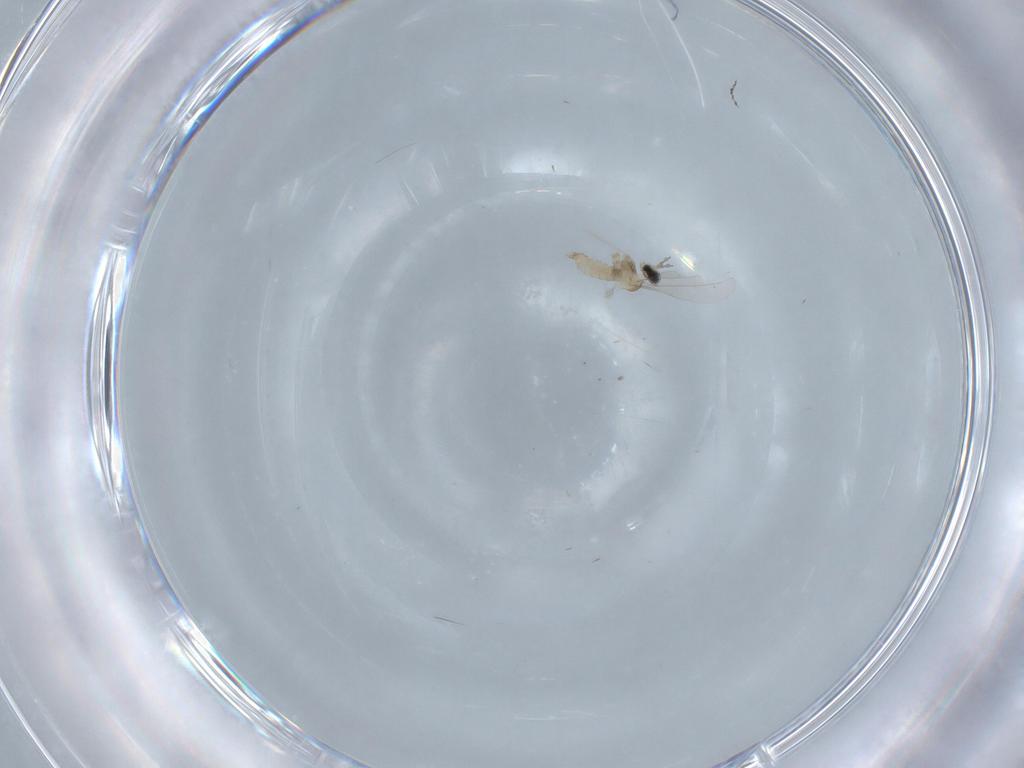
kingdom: Animalia
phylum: Arthropoda
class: Insecta
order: Diptera
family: Cecidomyiidae
